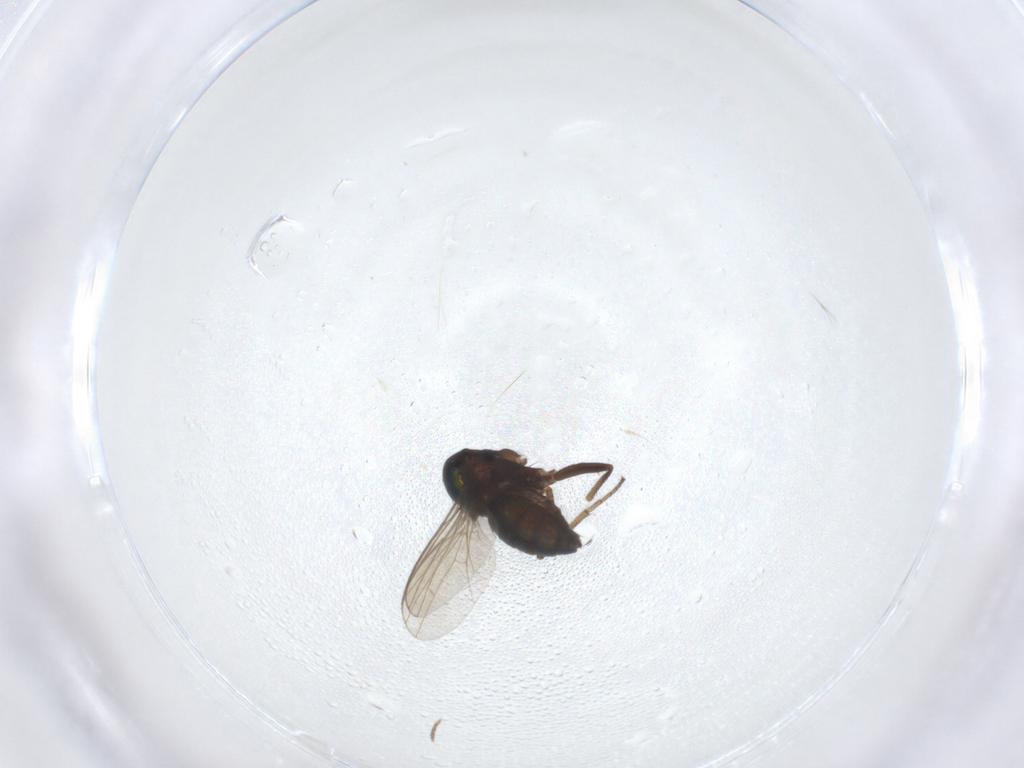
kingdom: Animalia
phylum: Arthropoda
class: Insecta
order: Diptera
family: Dolichopodidae
